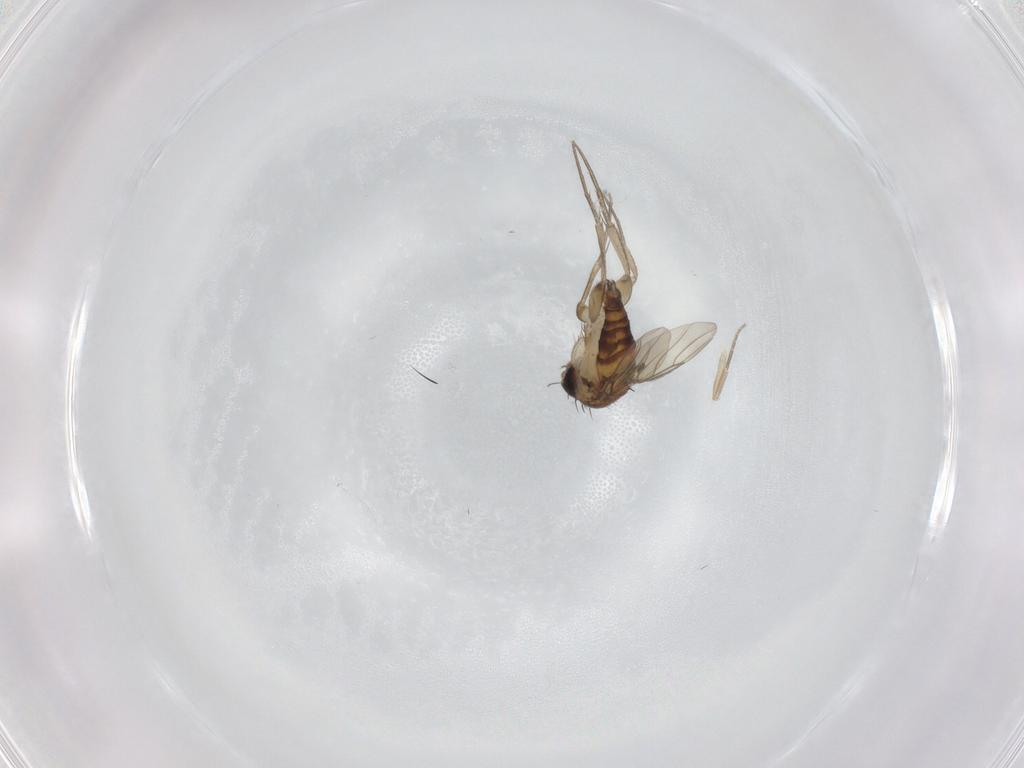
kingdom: Animalia
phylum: Arthropoda
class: Insecta
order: Diptera
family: Phoridae
